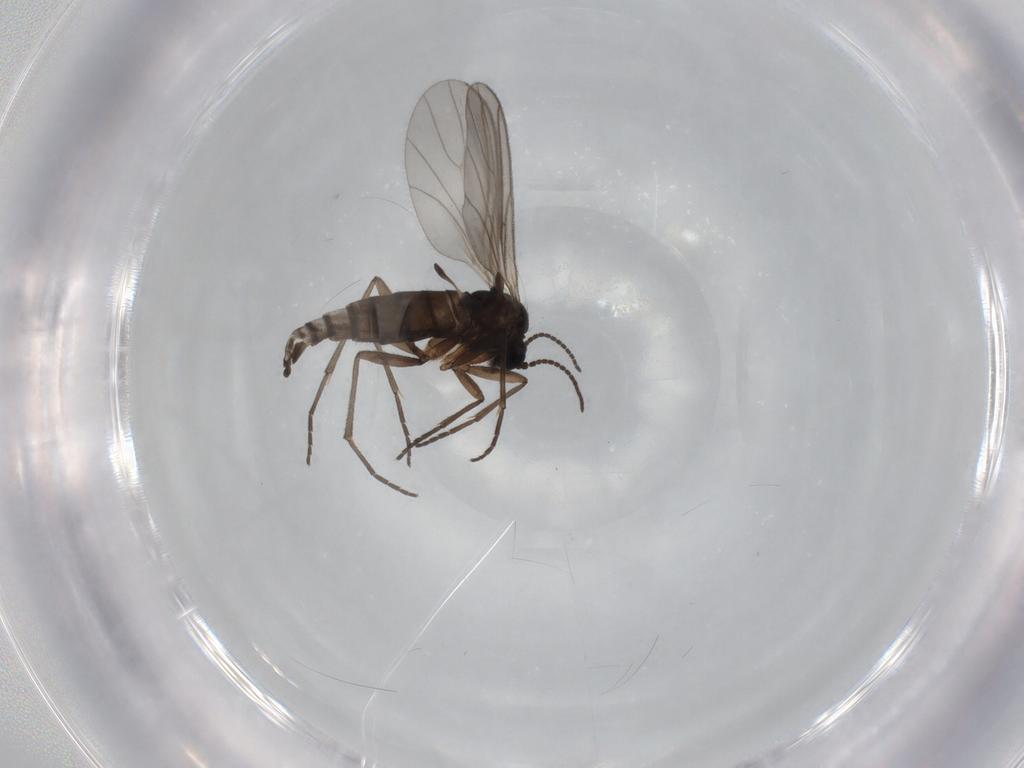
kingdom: Animalia
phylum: Arthropoda
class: Insecta
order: Diptera
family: Sciaridae
